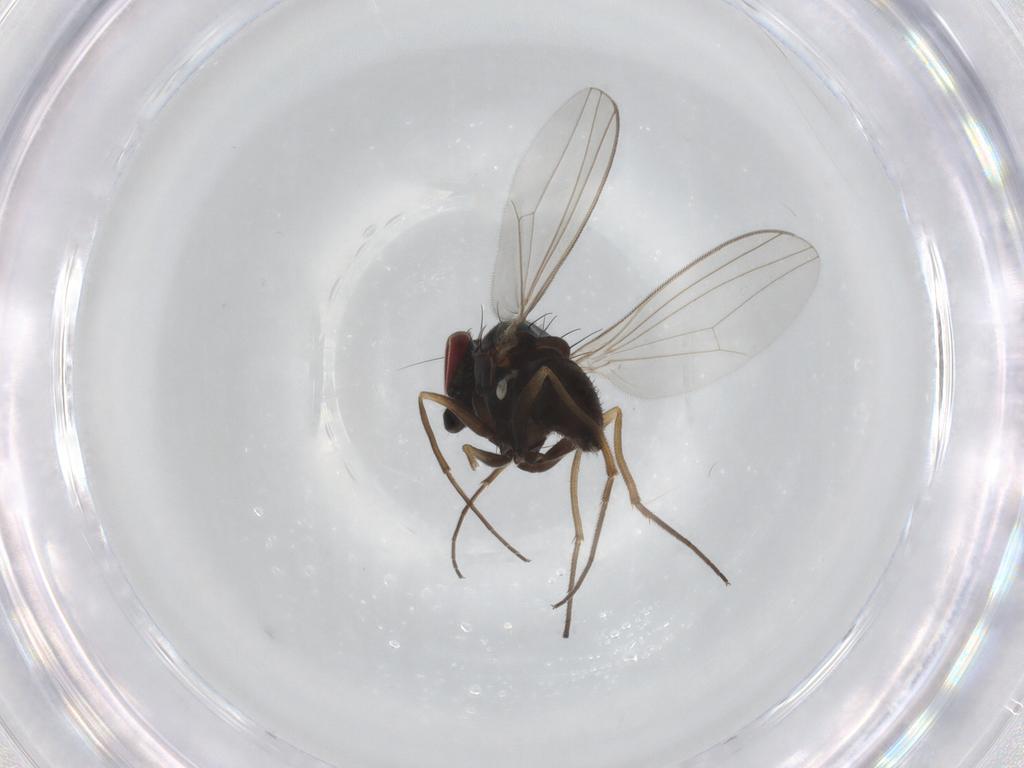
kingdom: Animalia
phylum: Arthropoda
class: Insecta
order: Diptera
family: Dolichopodidae
